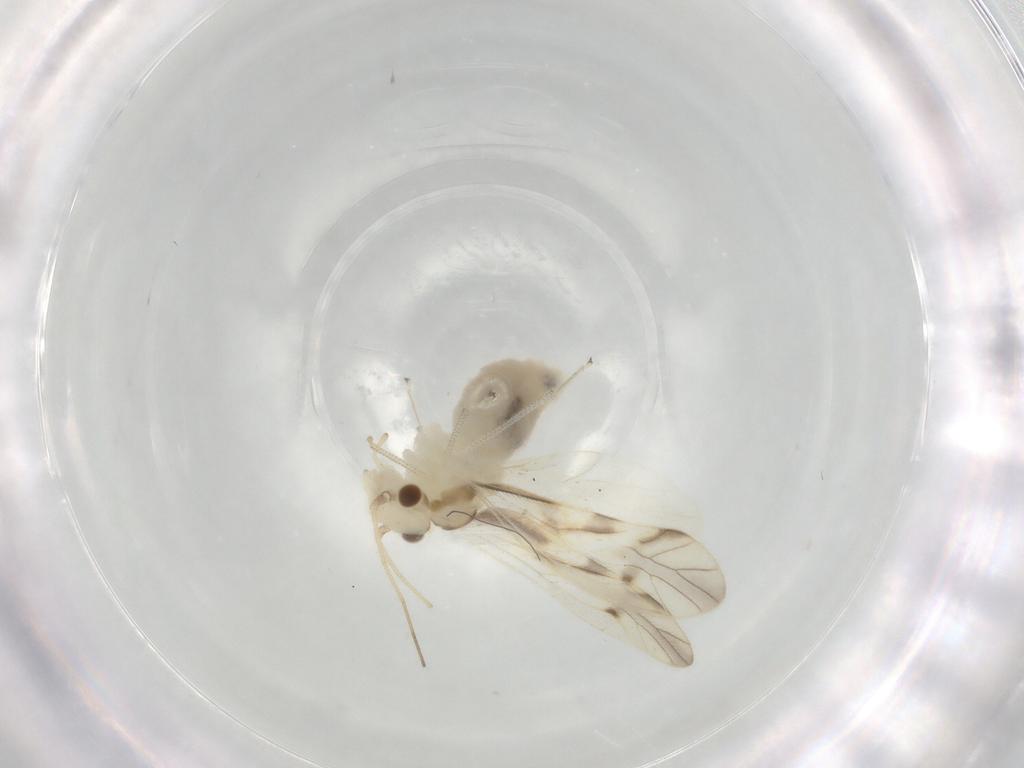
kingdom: Animalia
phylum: Arthropoda
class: Insecta
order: Psocodea
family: Caeciliusidae
